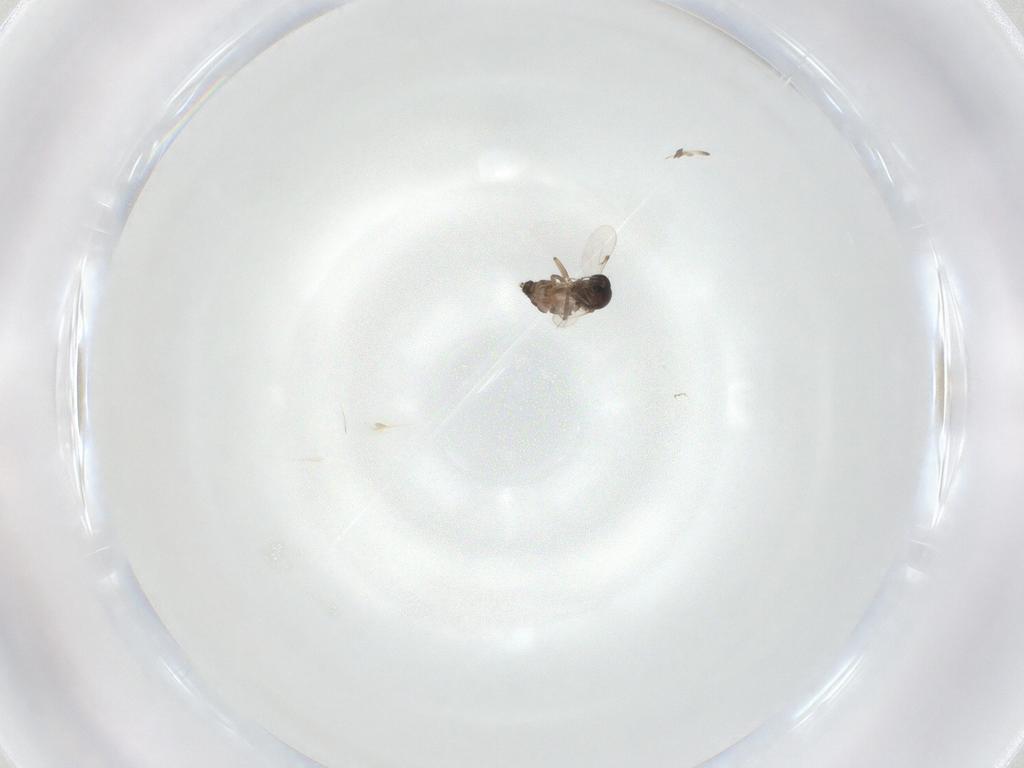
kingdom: Animalia
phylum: Arthropoda
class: Insecta
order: Diptera
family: Ceratopogonidae
